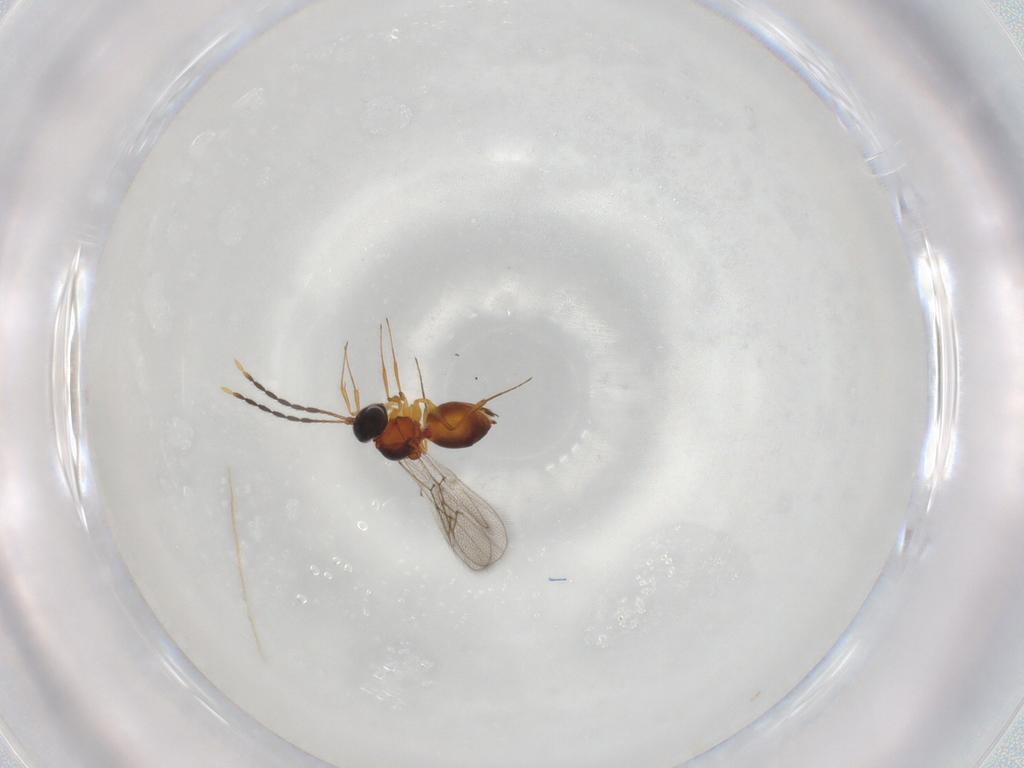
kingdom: Animalia
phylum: Arthropoda
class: Insecta
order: Hymenoptera
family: Figitidae
